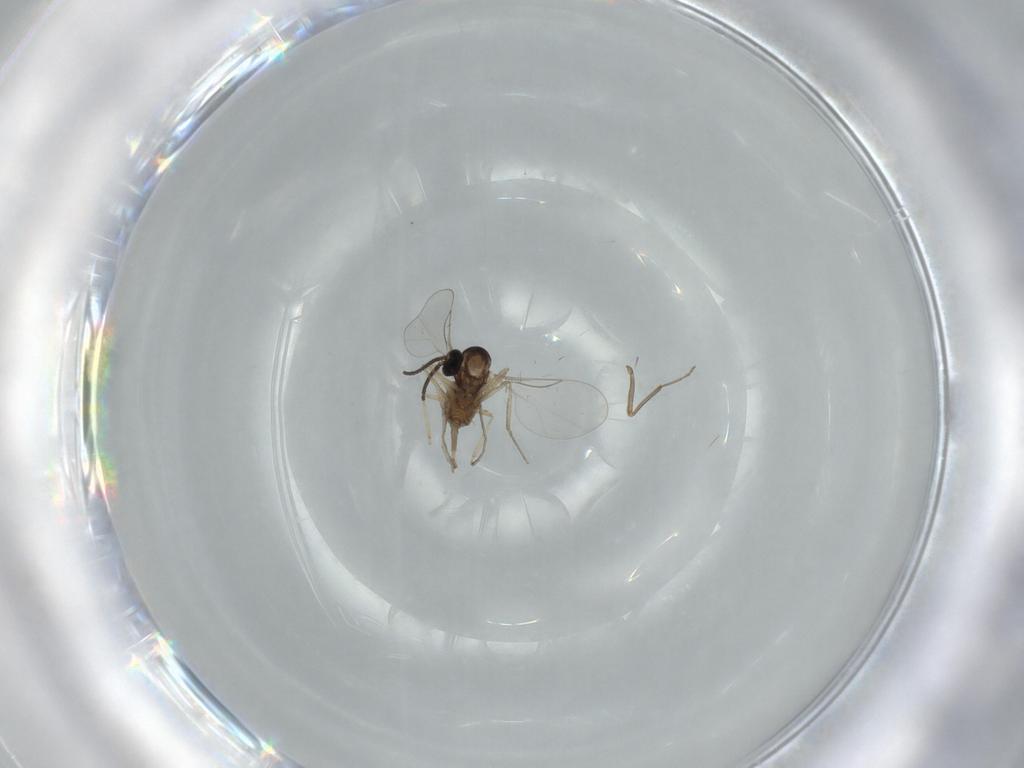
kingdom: Animalia
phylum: Arthropoda
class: Insecta
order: Diptera
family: Cecidomyiidae
